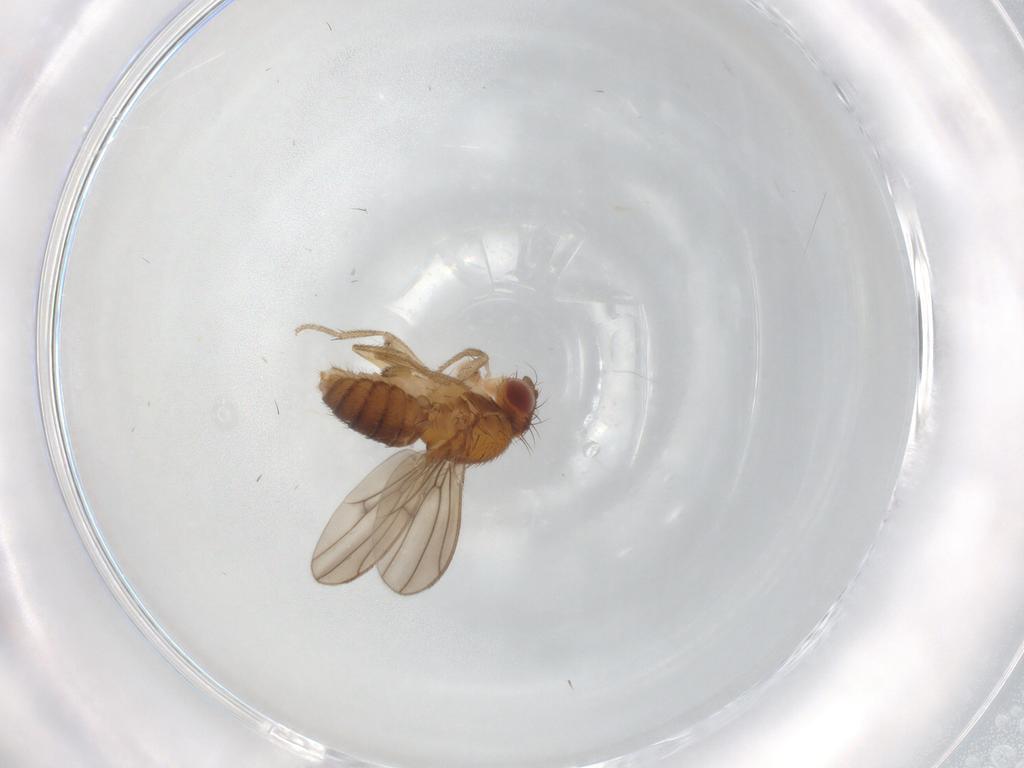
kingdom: Animalia
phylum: Arthropoda
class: Insecta
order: Diptera
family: Drosophilidae
